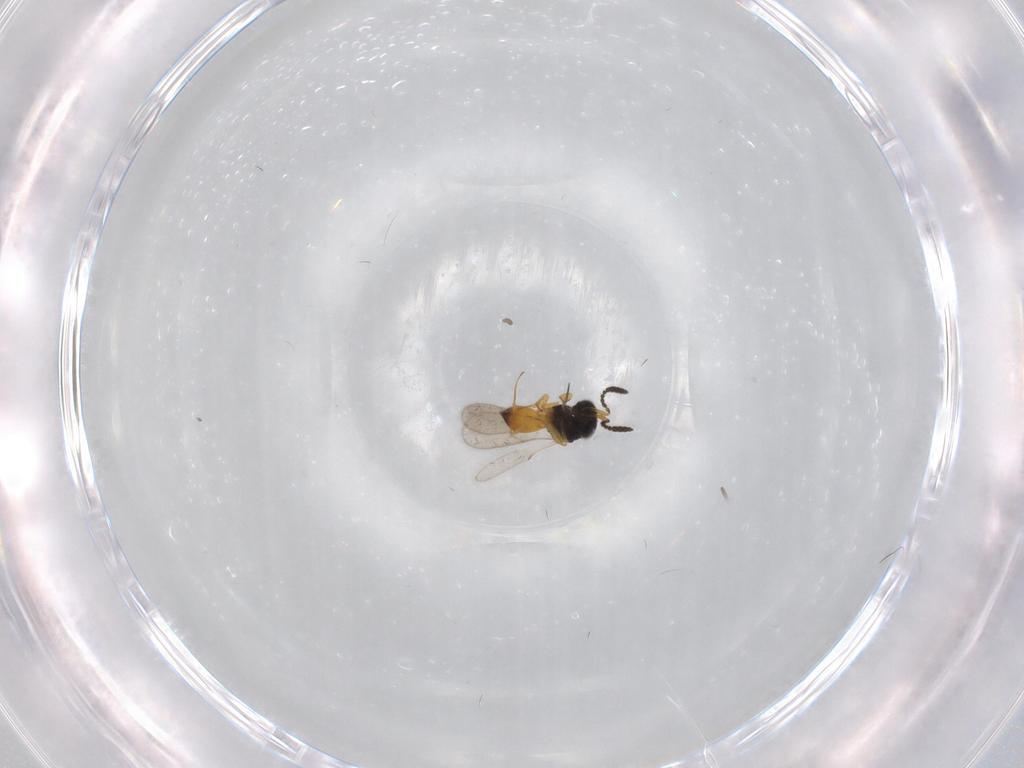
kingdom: Animalia
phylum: Arthropoda
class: Insecta
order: Hymenoptera
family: Scelionidae
